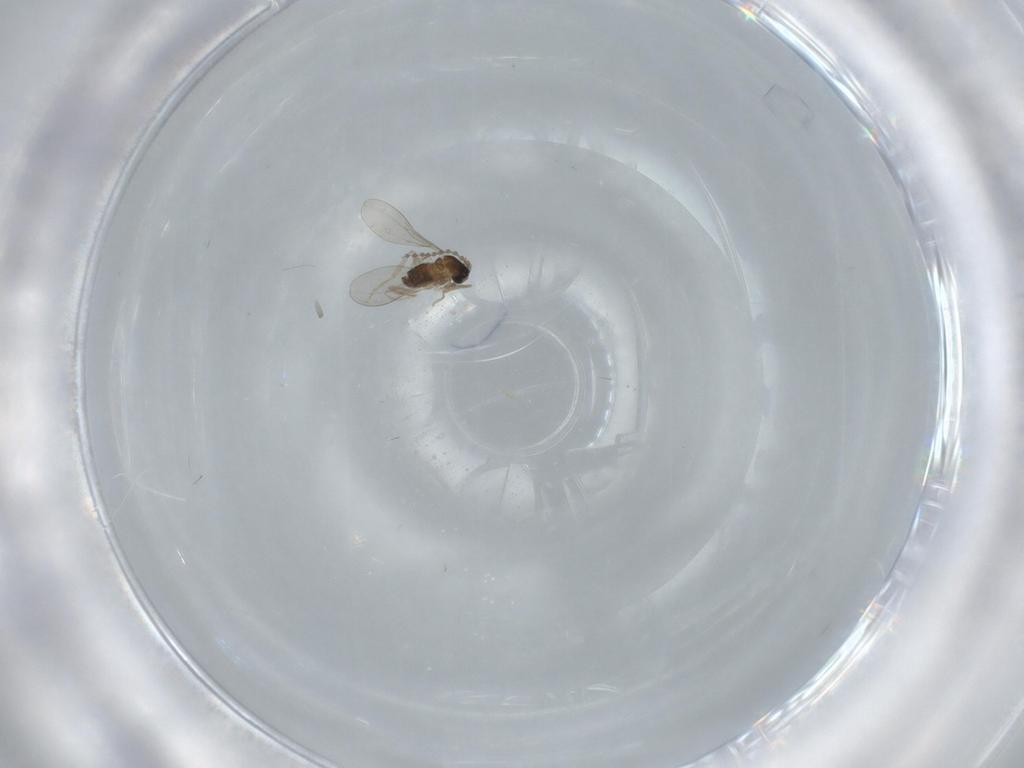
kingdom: Animalia
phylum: Arthropoda
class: Insecta
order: Diptera
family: Cecidomyiidae
